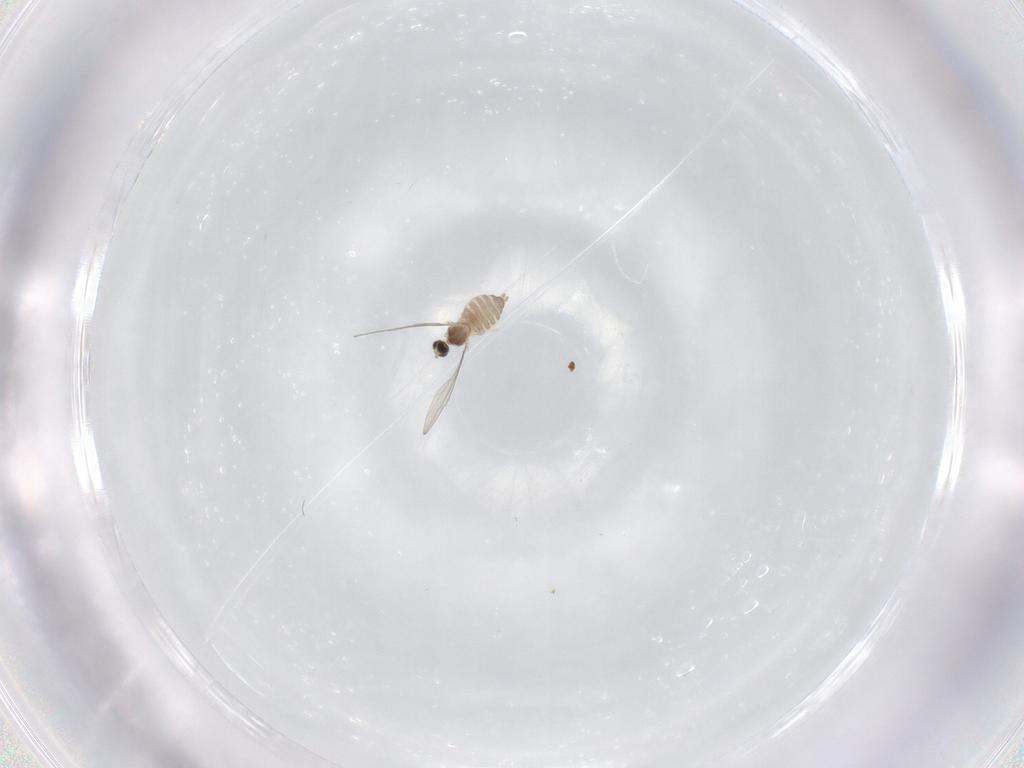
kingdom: Animalia
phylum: Arthropoda
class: Insecta
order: Diptera
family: Cecidomyiidae
